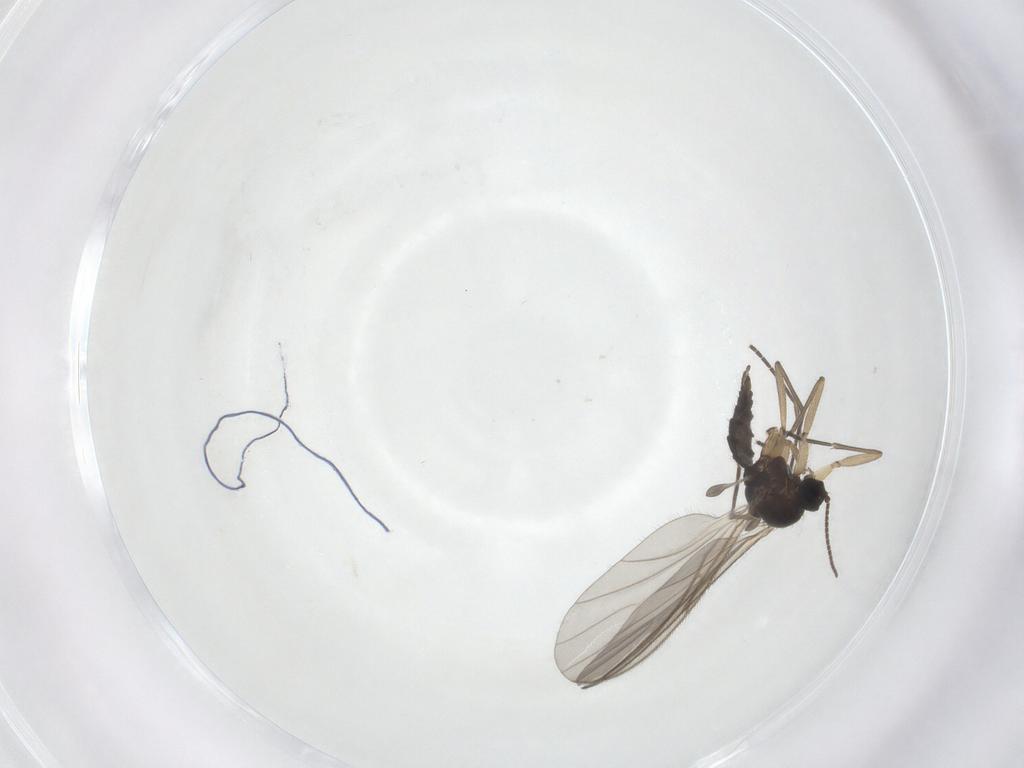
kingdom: Animalia
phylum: Arthropoda
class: Insecta
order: Diptera
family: Sciaridae
